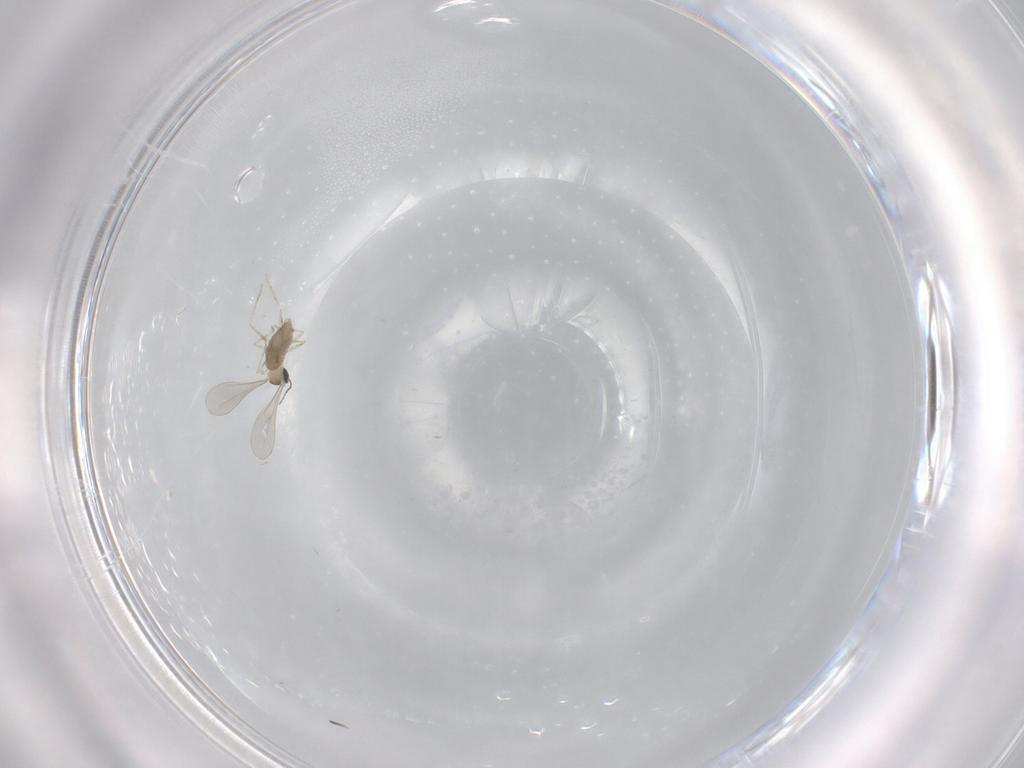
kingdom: Animalia
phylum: Arthropoda
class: Insecta
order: Diptera
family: Cecidomyiidae
